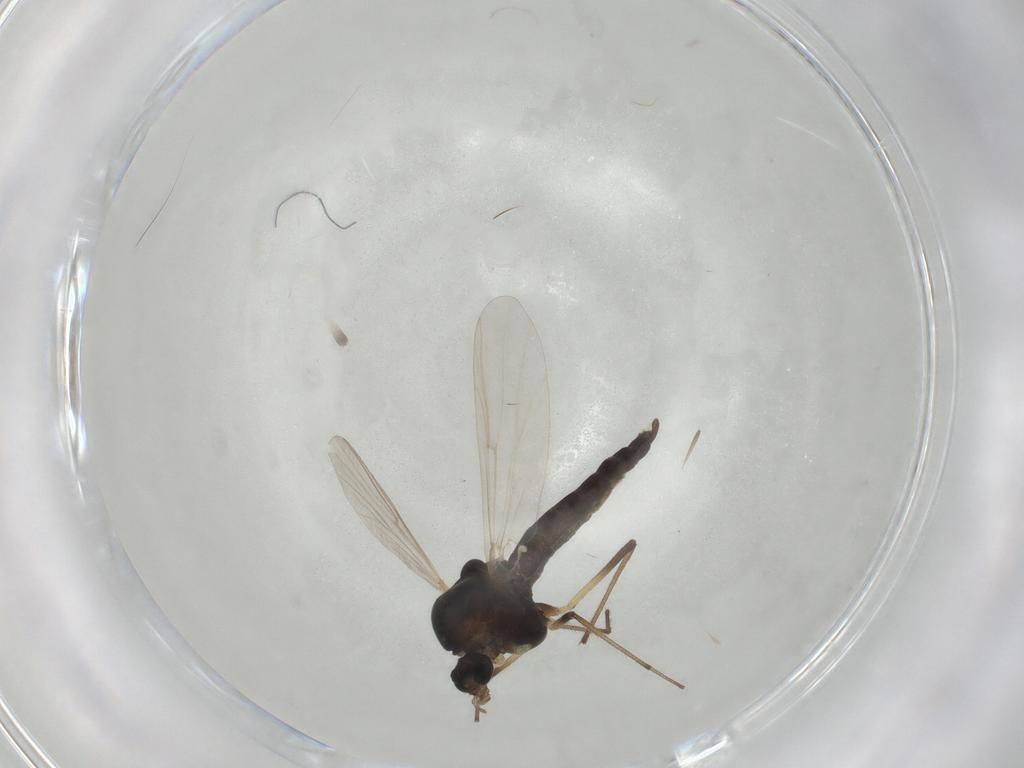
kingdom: Animalia
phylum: Arthropoda
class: Insecta
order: Diptera
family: Chironomidae
